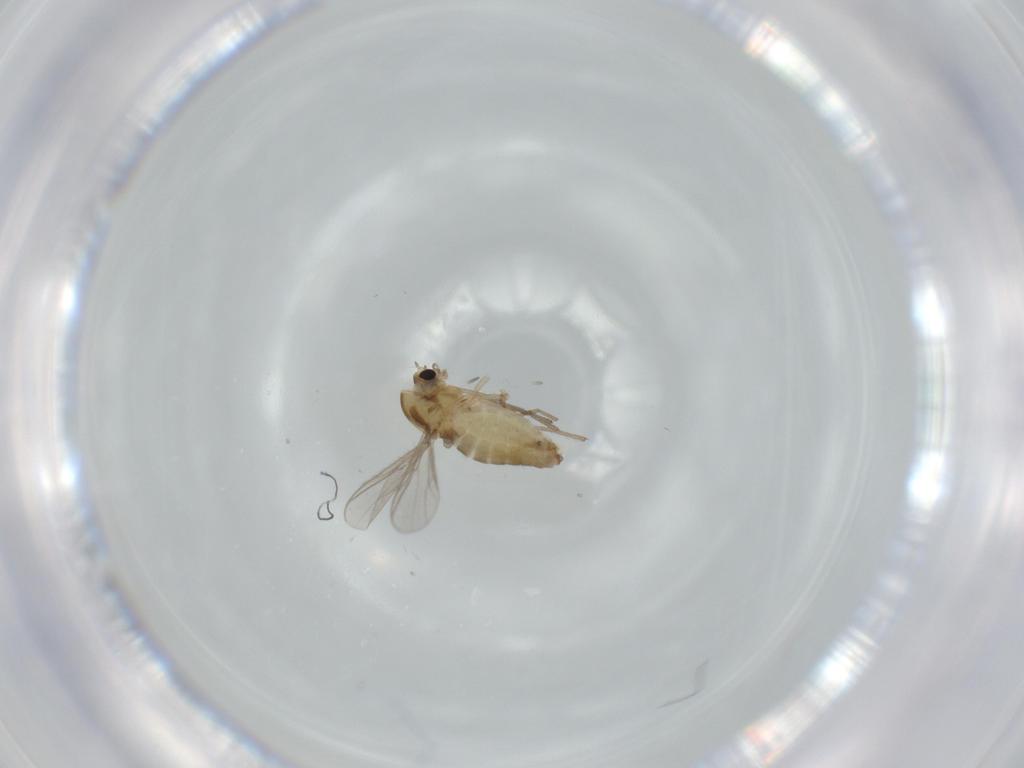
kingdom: Animalia
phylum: Arthropoda
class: Insecta
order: Diptera
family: Chironomidae
